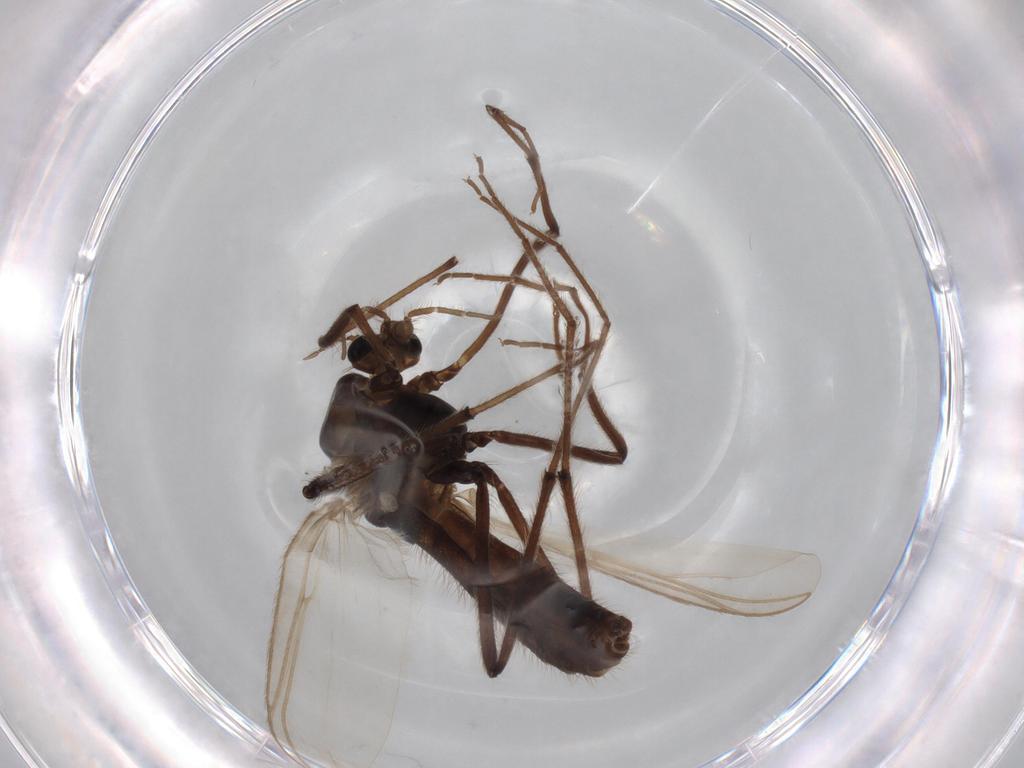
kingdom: Animalia
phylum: Arthropoda
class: Insecta
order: Diptera
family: Chironomidae
